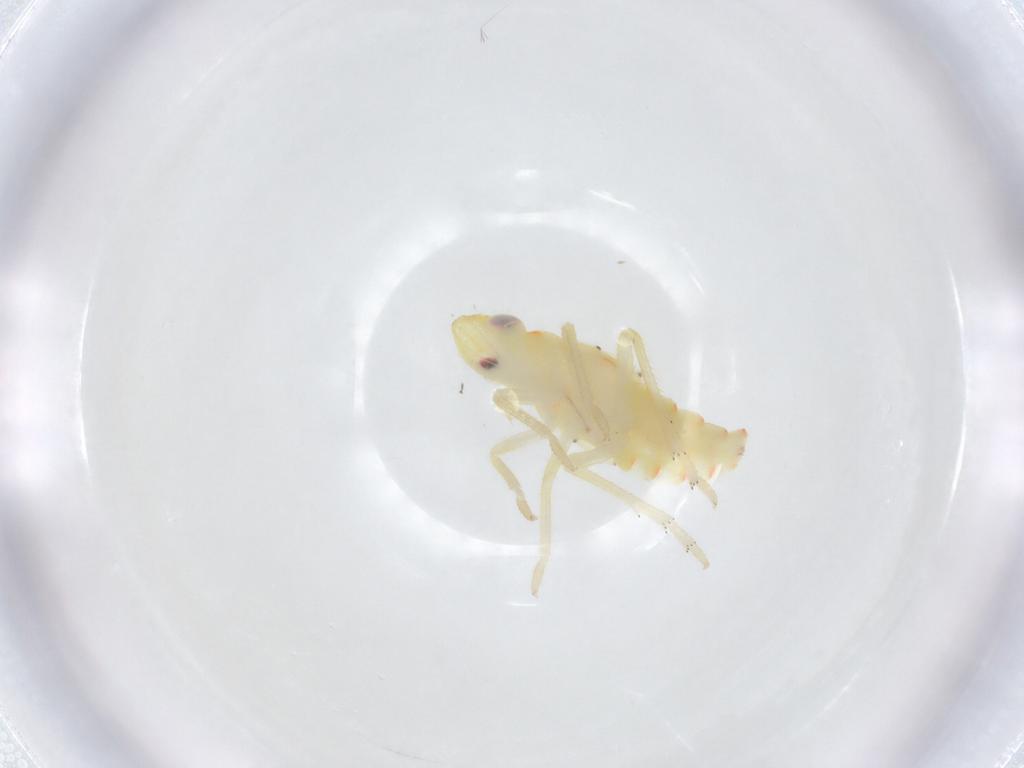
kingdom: Animalia
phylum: Arthropoda
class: Insecta
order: Hemiptera
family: Tropiduchidae
